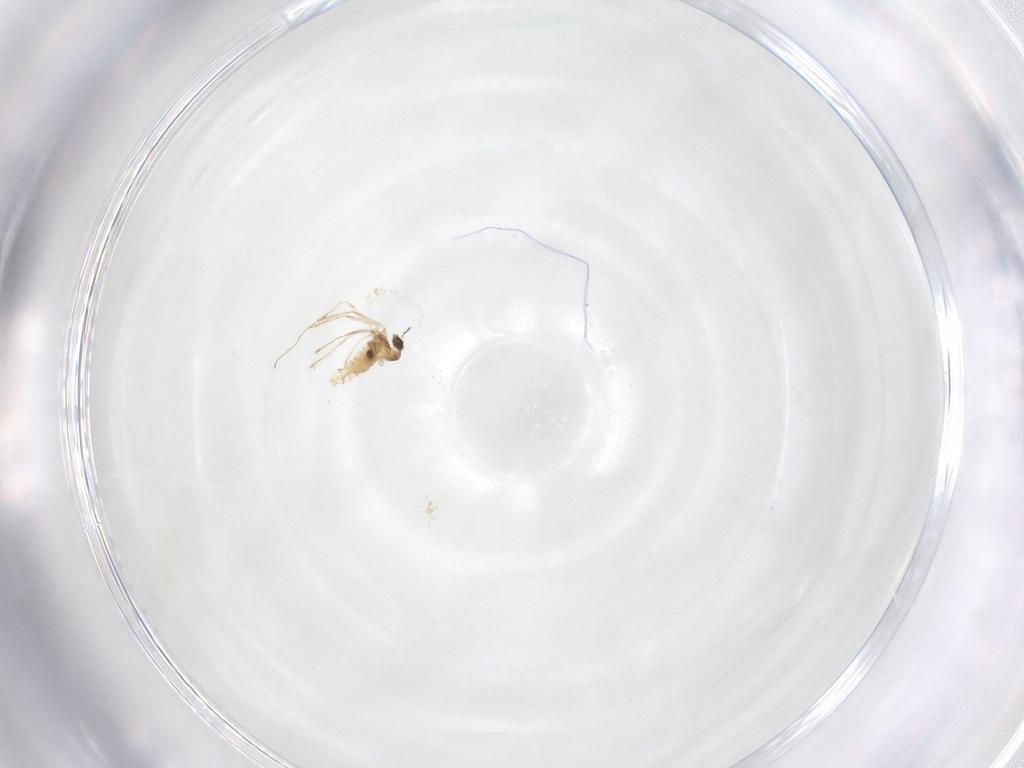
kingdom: Animalia
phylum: Arthropoda
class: Insecta
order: Diptera
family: Cecidomyiidae
